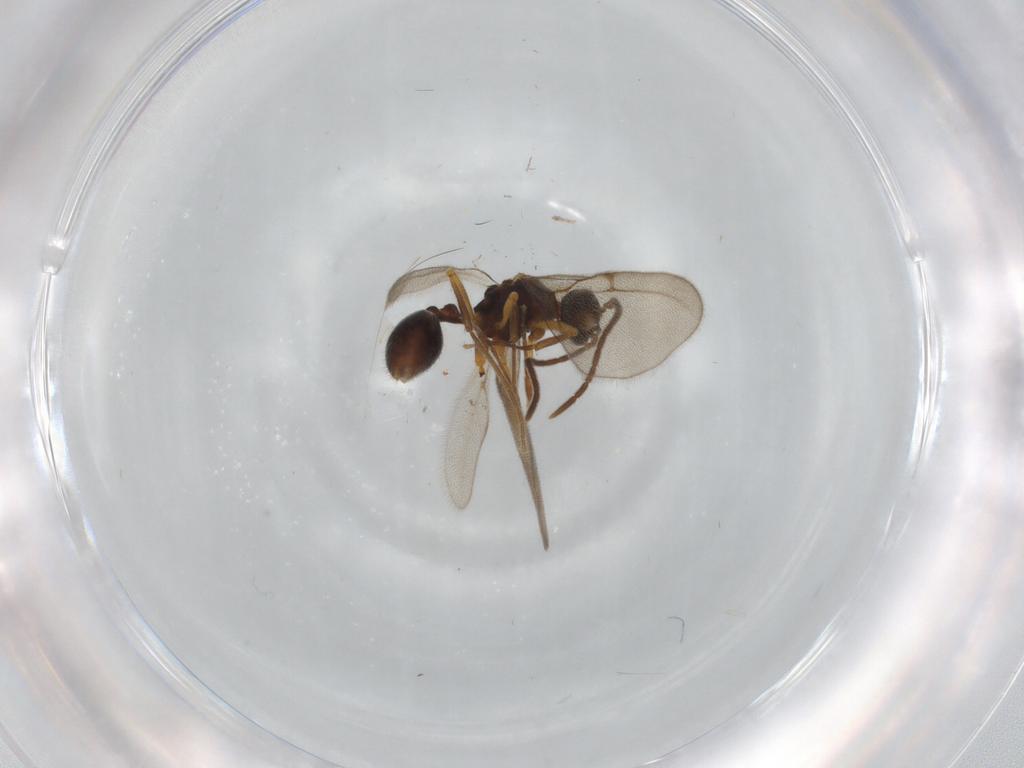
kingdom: Animalia
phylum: Arthropoda
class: Insecta
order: Hymenoptera
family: Formicidae
